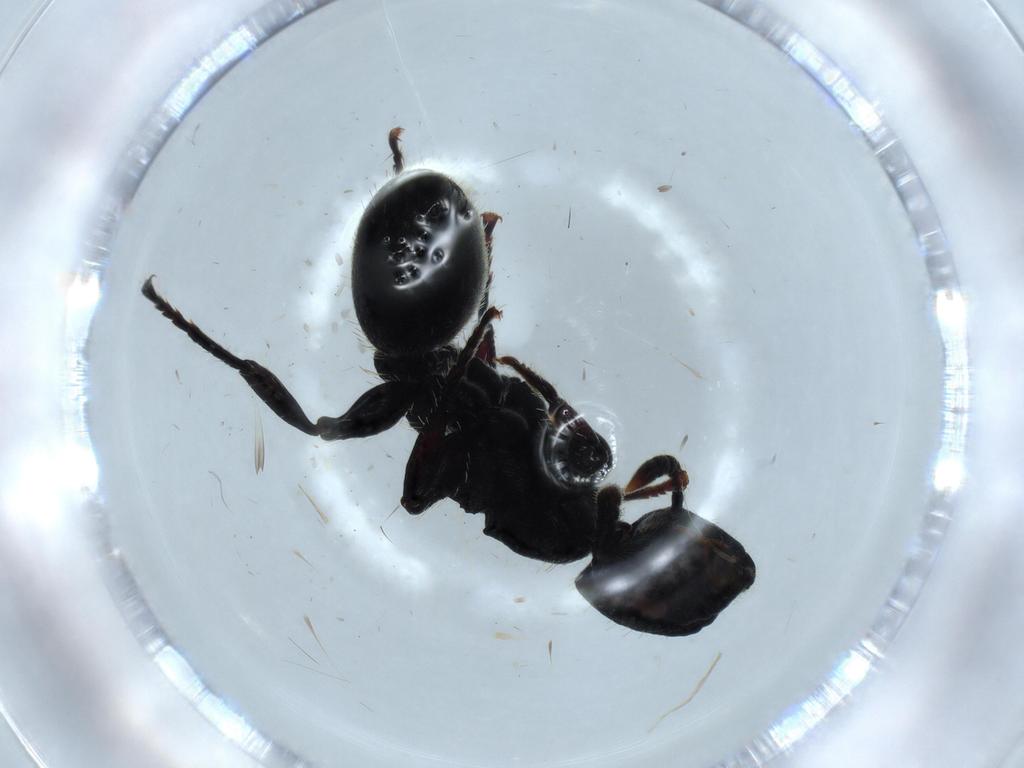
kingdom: Animalia
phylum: Arthropoda
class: Insecta
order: Hymenoptera
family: Formicidae
